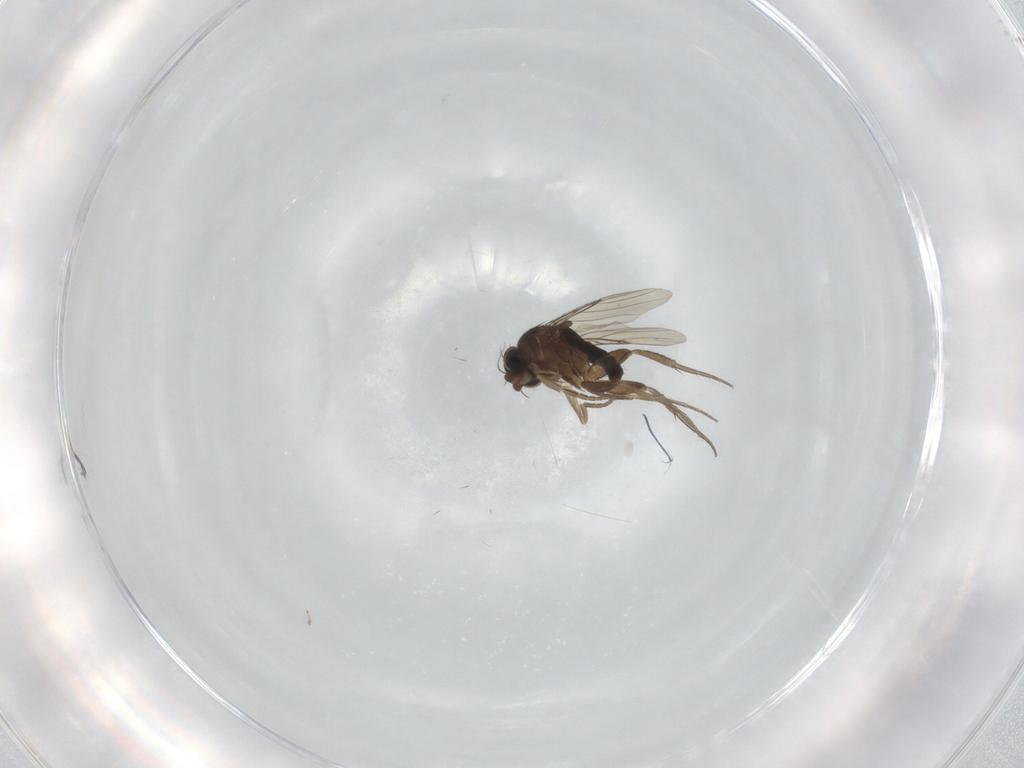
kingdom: Animalia
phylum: Arthropoda
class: Insecta
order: Diptera
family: Phoridae
